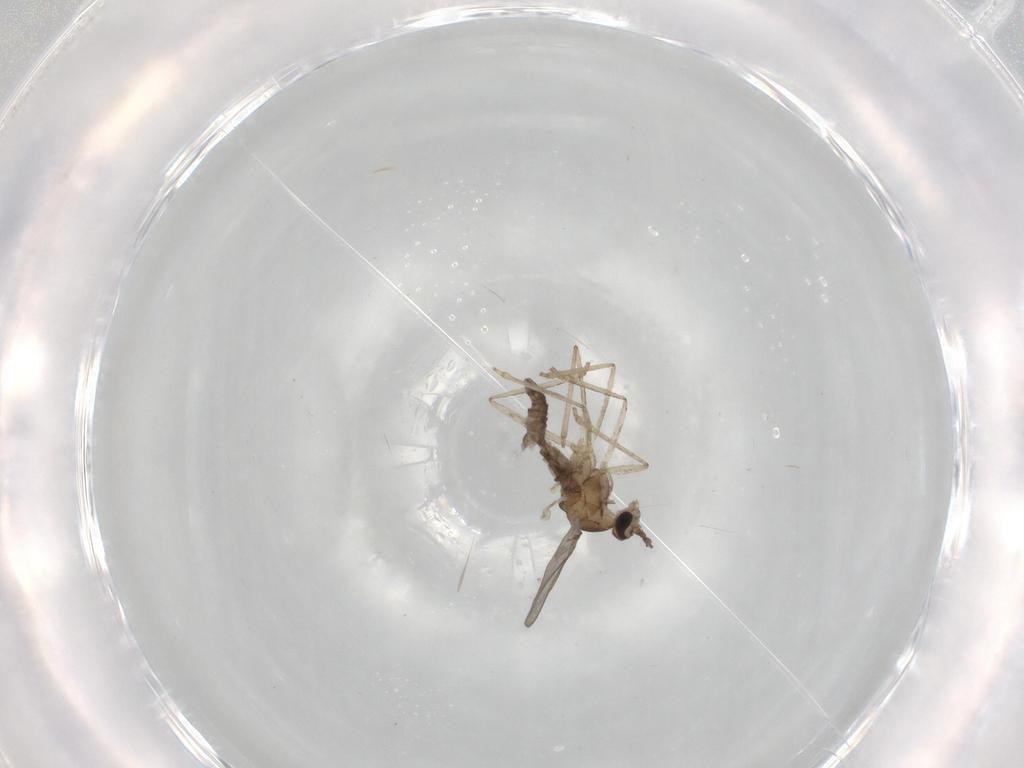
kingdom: Animalia
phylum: Arthropoda
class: Insecta
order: Diptera
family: Cecidomyiidae
